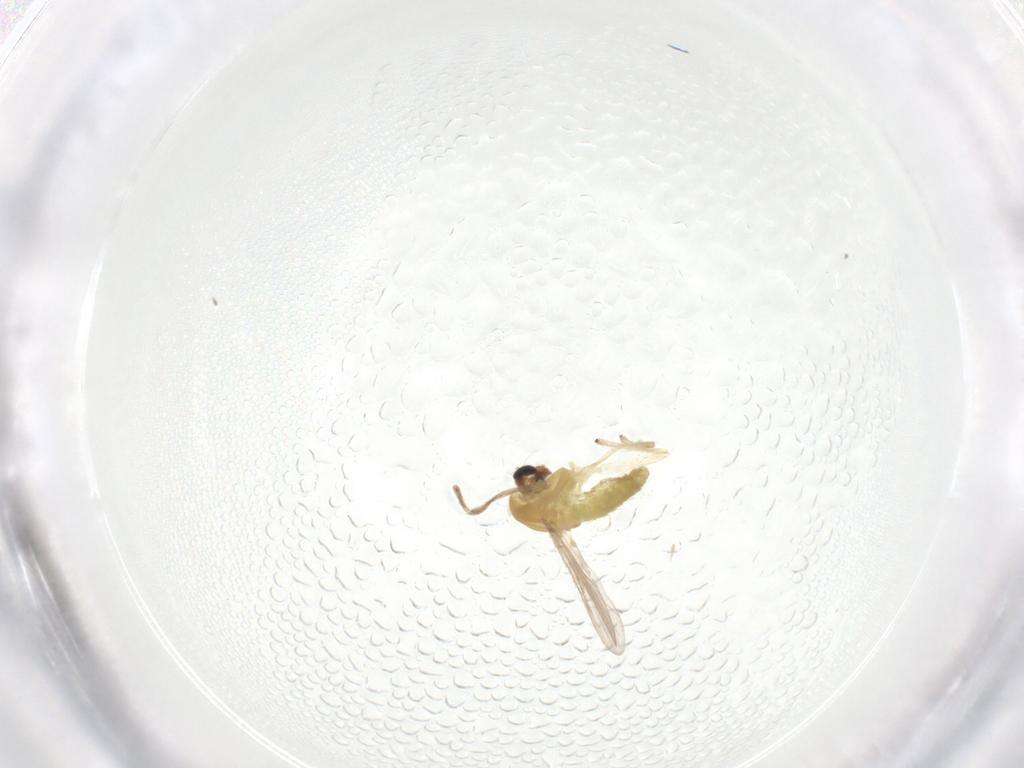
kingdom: Animalia
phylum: Arthropoda
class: Insecta
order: Diptera
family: Chironomidae
